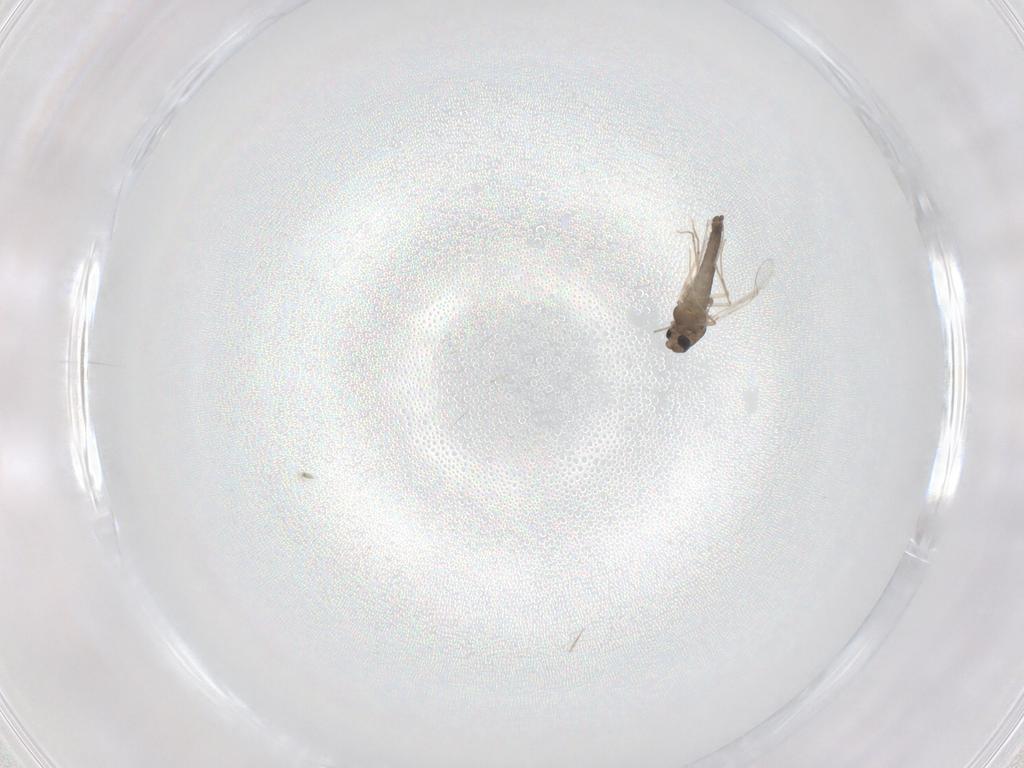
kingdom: Animalia
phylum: Arthropoda
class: Insecta
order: Diptera
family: Chironomidae
